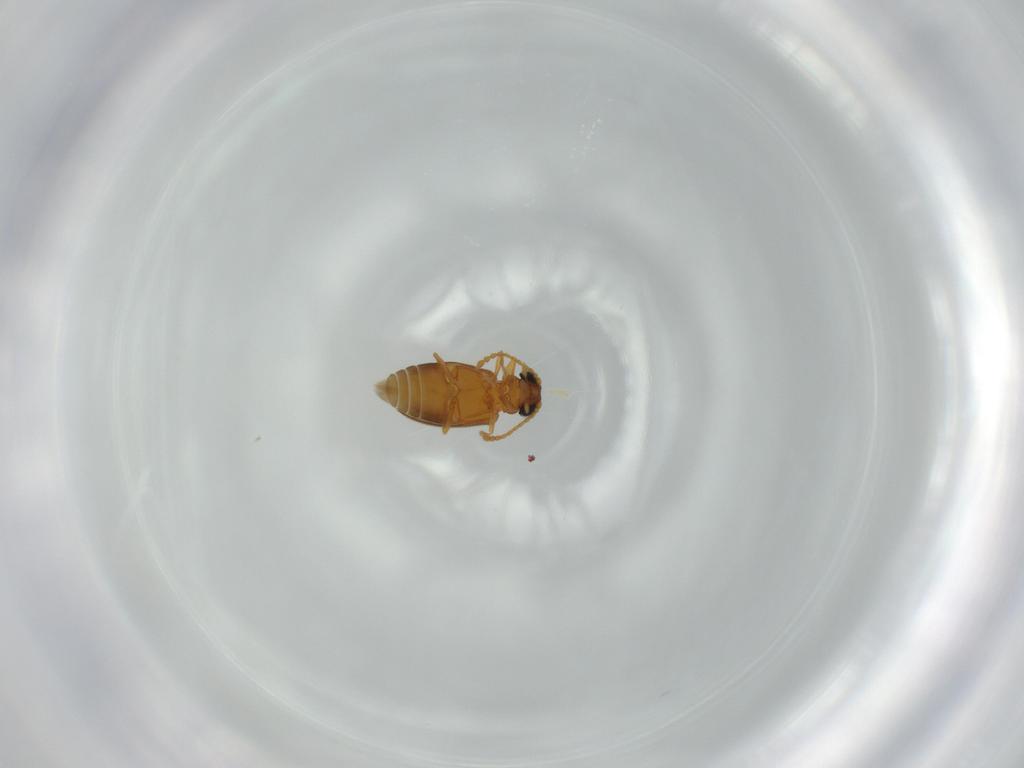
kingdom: Animalia
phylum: Arthropoda
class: Insecta
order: Coleoptera
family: Aderidae
